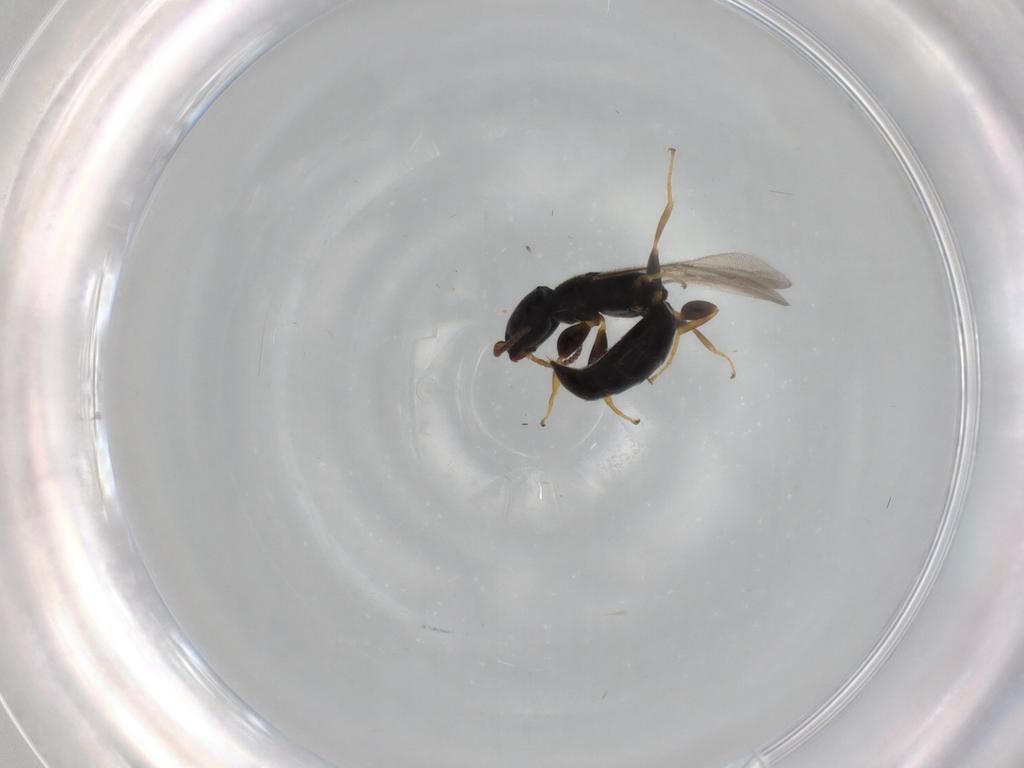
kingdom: Animalia
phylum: Arthropoda
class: Insecta
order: Hymenoptera
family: Bethylidae
